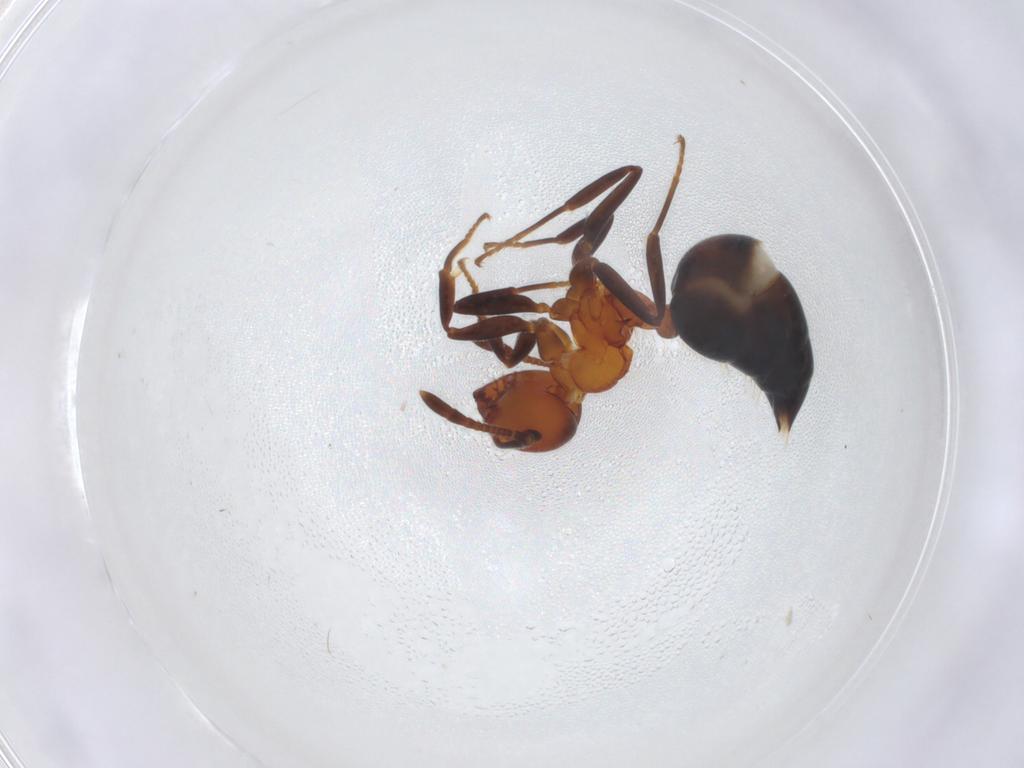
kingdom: Animalia
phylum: Arthropoda
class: Insecta
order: Hymenoptera
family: Formicidae
